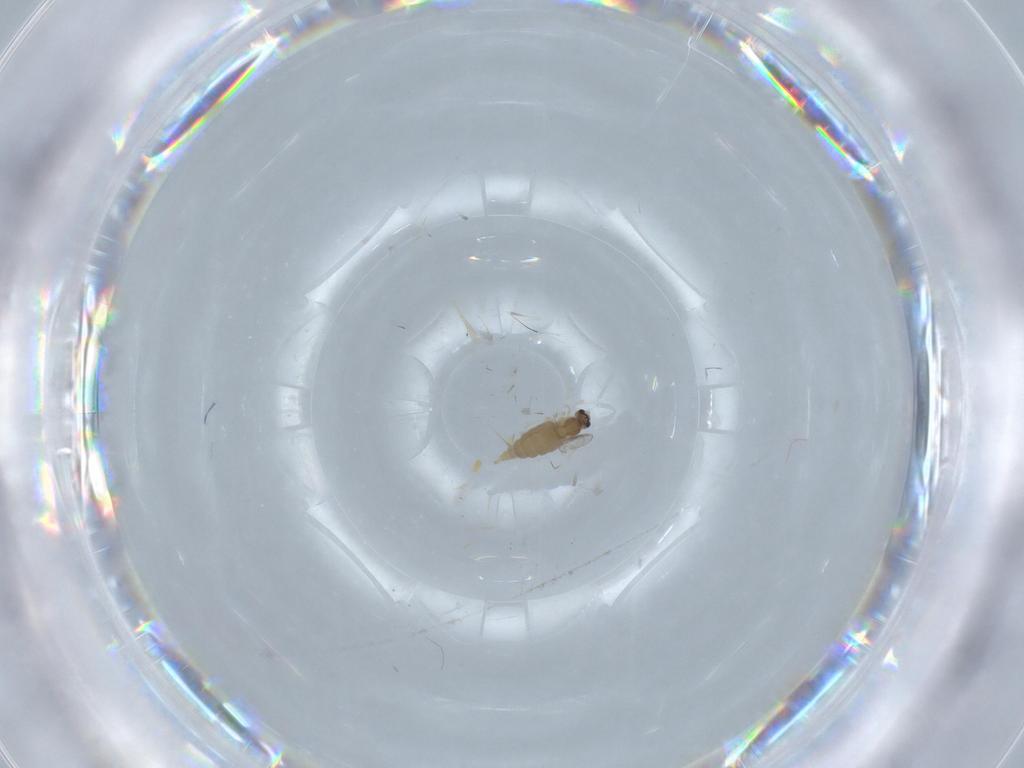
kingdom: Animalia
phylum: Arthropoda
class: Insecta
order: Diptera
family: Cecidomyiidae
